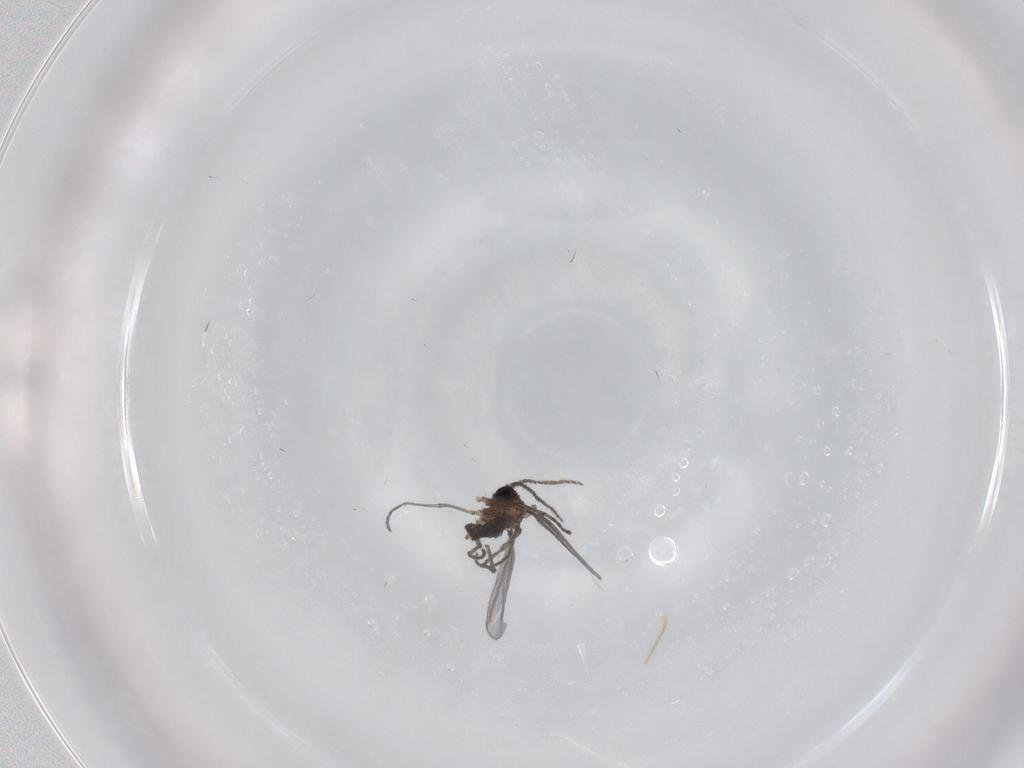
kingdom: Animalia
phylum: Arthropoda
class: Insecta
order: Diptera
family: Sciaridae
